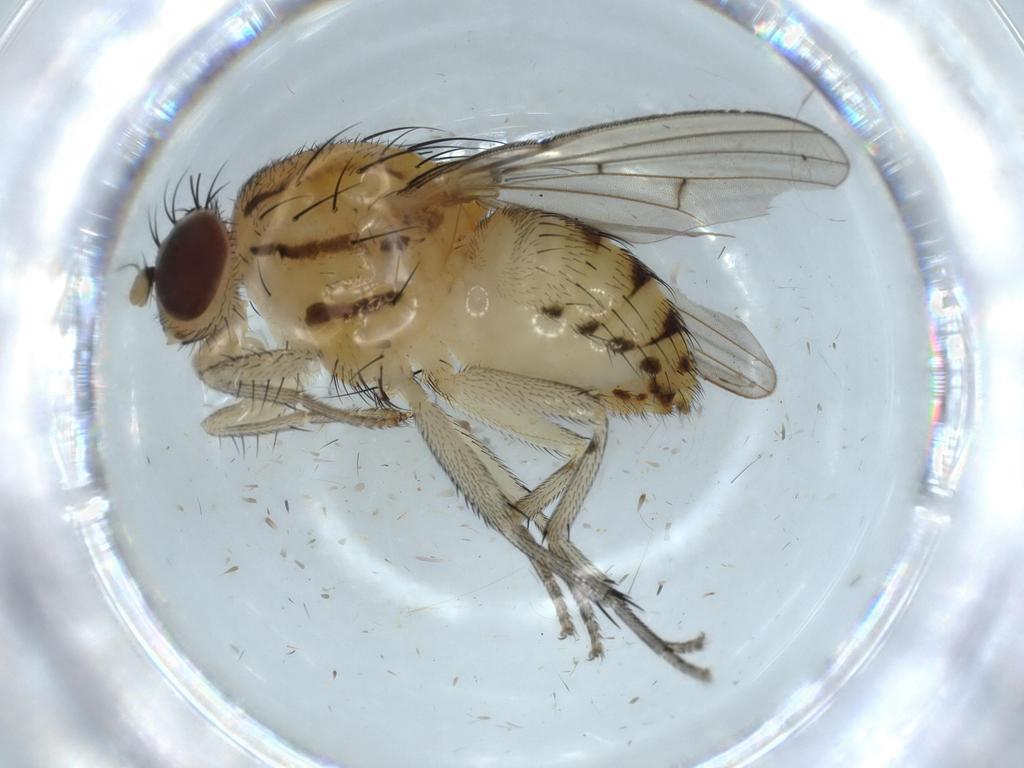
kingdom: Animalia
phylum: Arthropoda
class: Insecta
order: Diptera
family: Lauxaniidae
